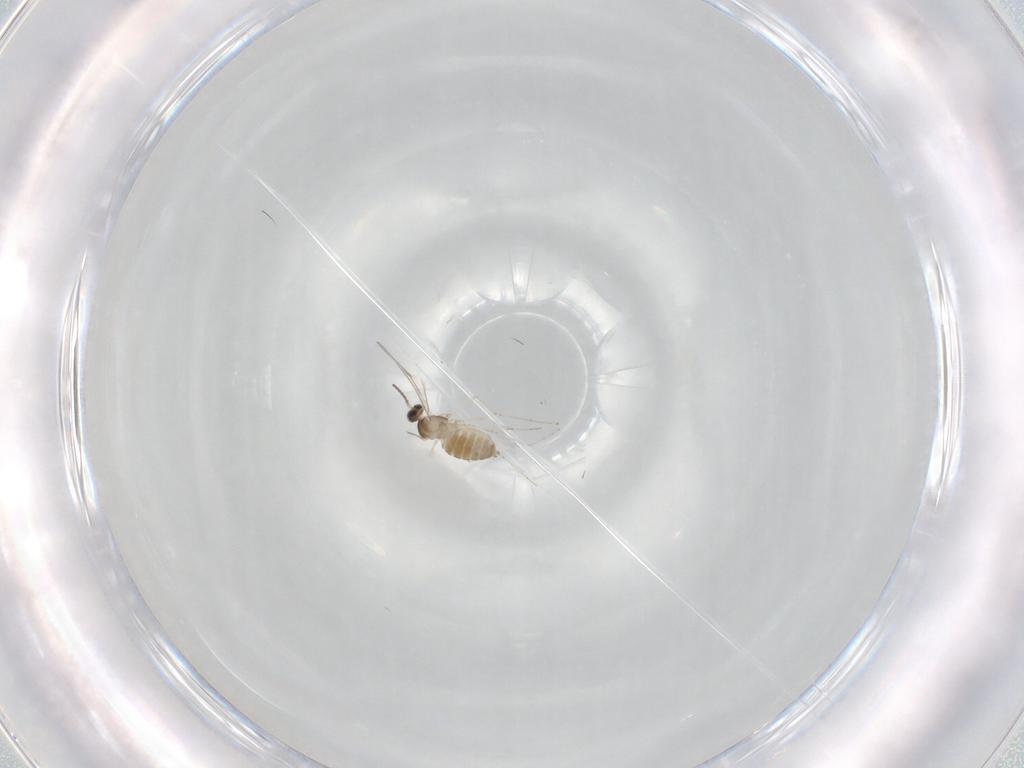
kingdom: Animalia
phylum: Arthropoda
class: Insecta
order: Diptera
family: Cecidomyiidae
